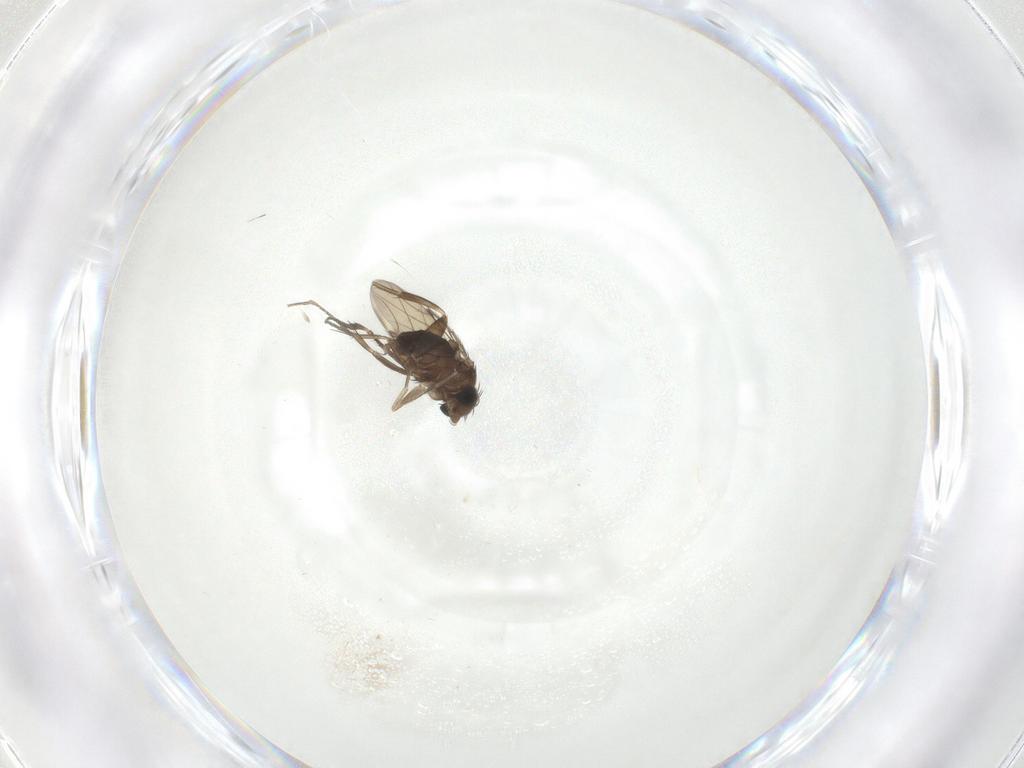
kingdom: Animalia
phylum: Arthropoda
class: Insecta
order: Diptera
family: Phoridae
